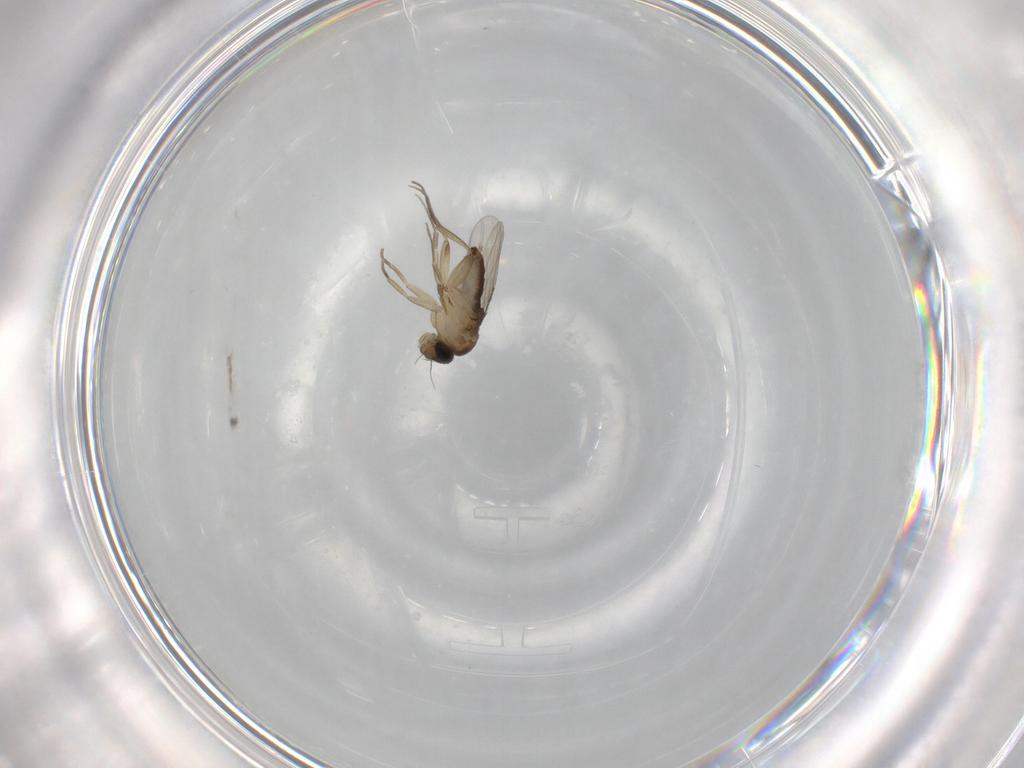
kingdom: Animalia
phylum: Arthropoda
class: Insecta
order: Diptera
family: Phoridae
